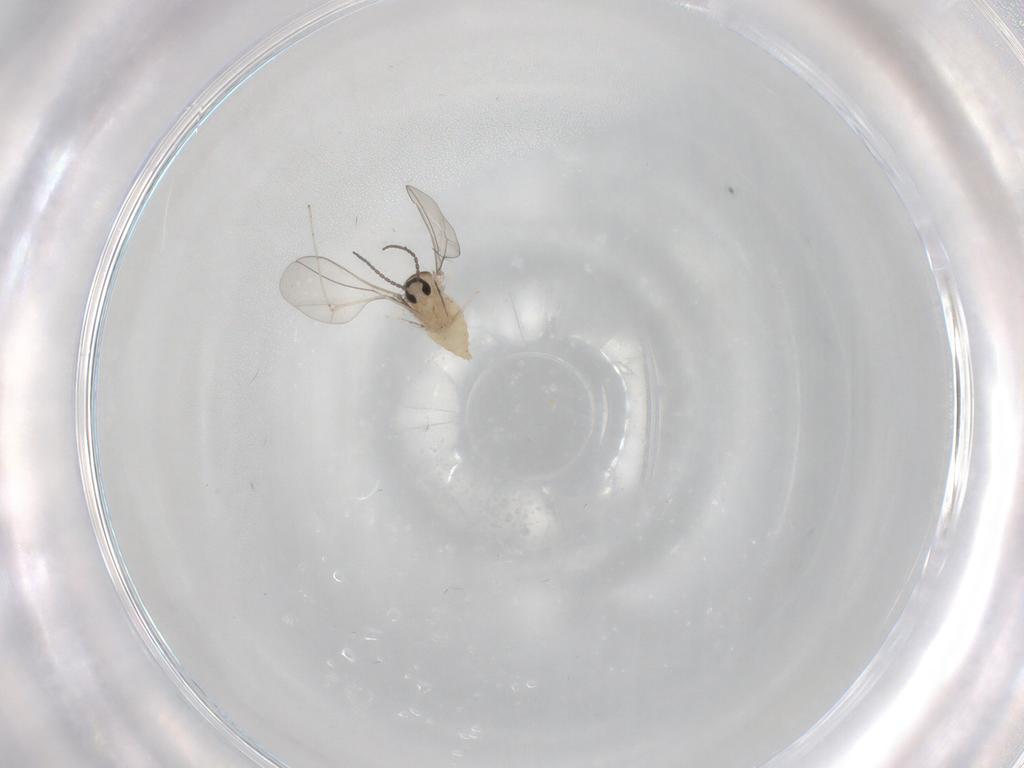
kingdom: Animalia
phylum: Arthropoda
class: Insecta
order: Diptera
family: Cecidomyiidae
